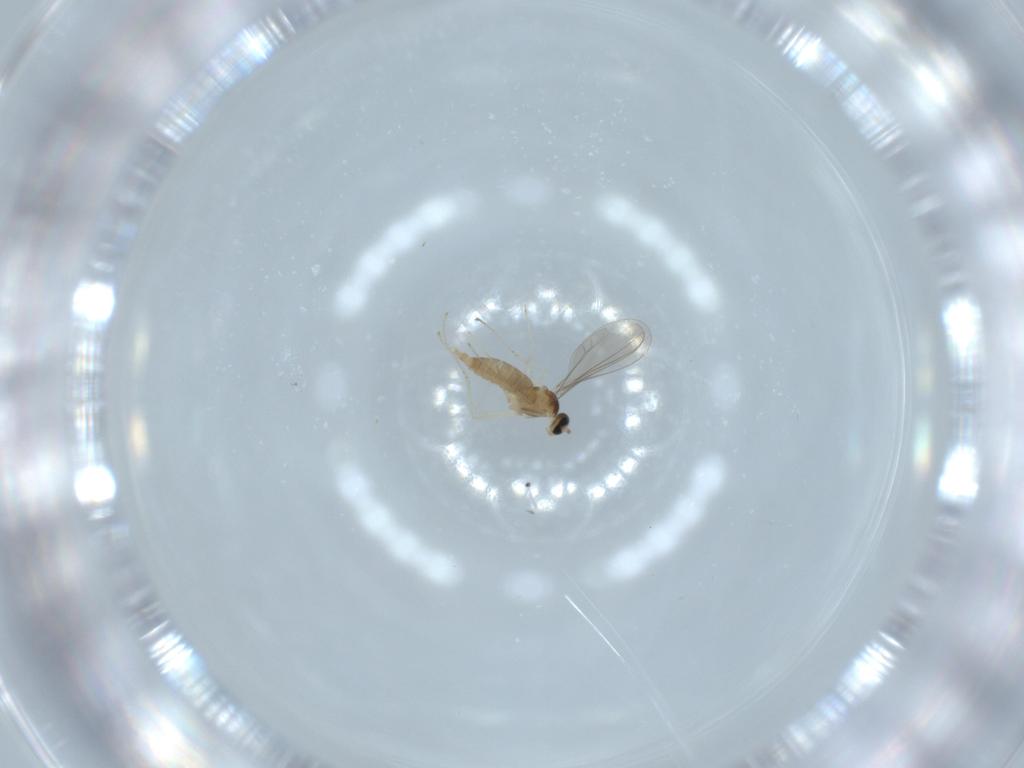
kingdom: Animalia
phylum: Arthropoda
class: Insecta
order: Diptera
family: Cecidomyiidae
